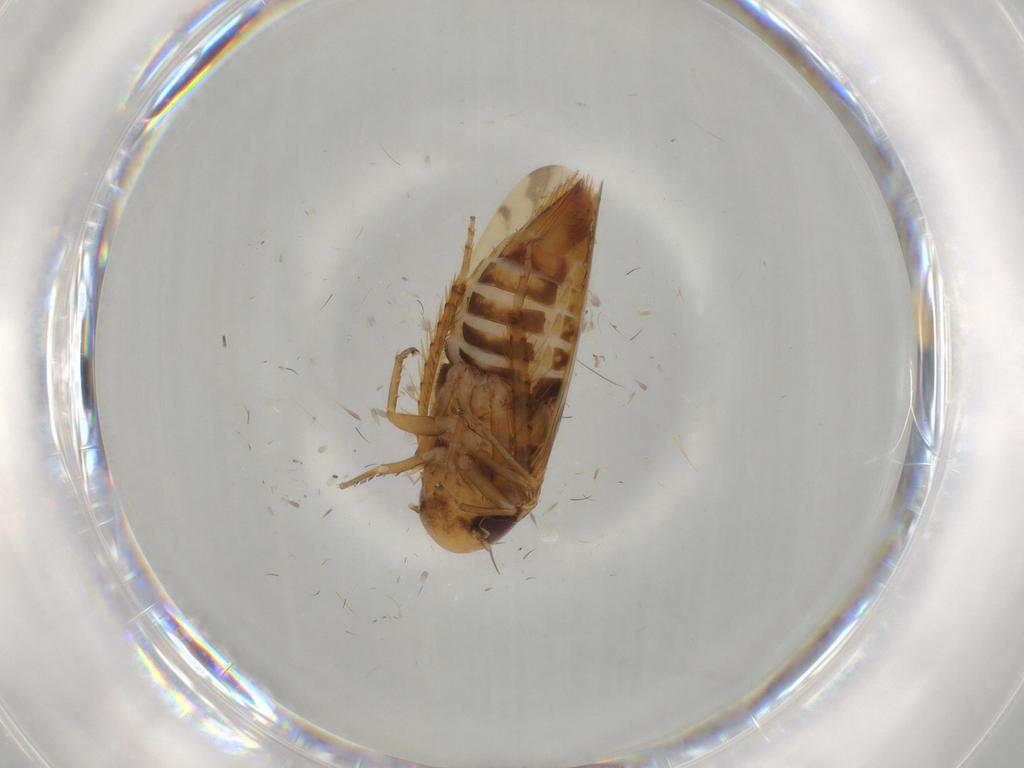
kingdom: Animalia
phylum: Arthropoda
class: Insecta
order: Hemiptera
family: Cicadellidae
